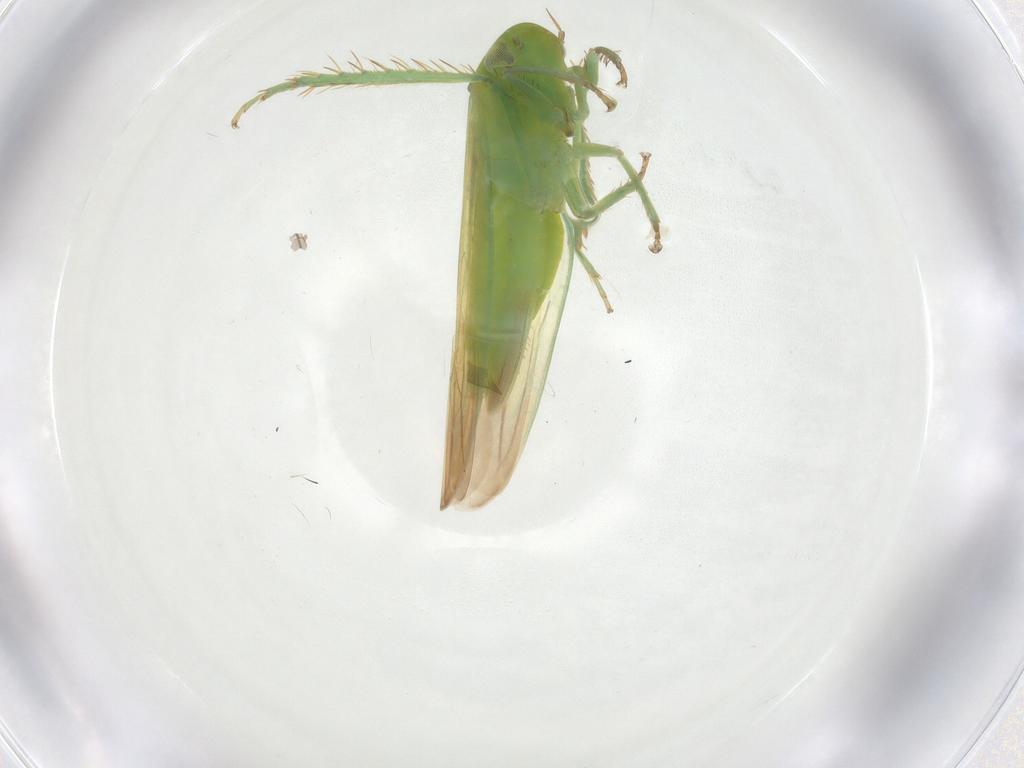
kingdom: Animalia
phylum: Arthropoda
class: Insecta
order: Hemiptera
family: Cicadellidae
